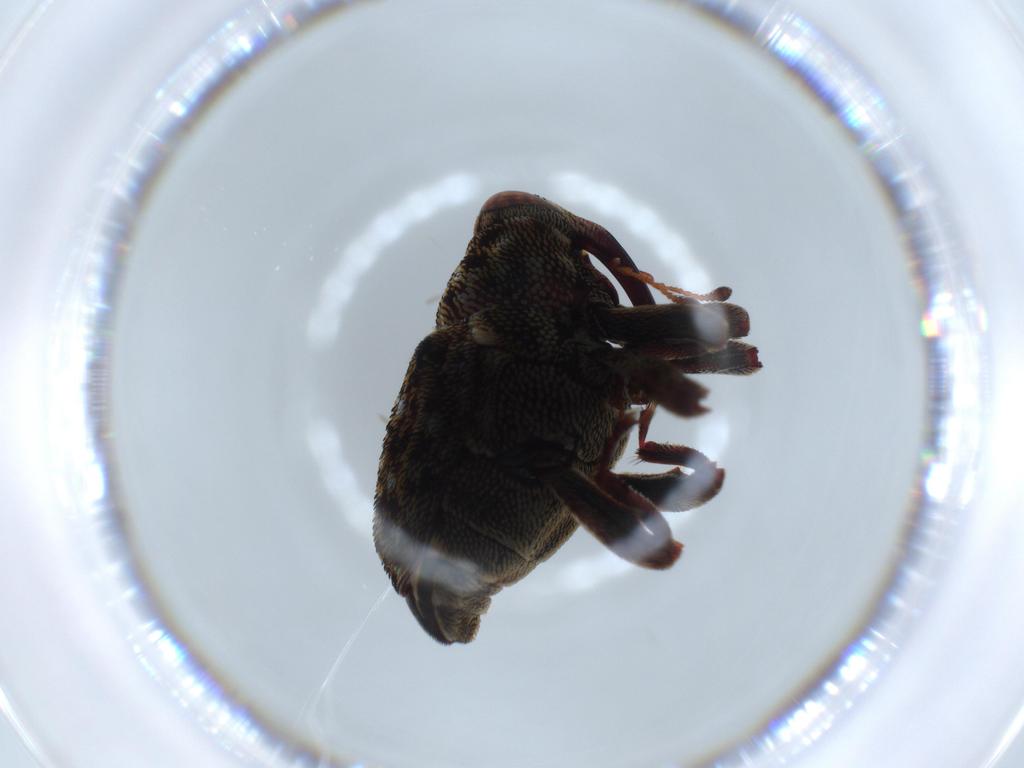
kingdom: Animalia
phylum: Arthropoda
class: Insecta
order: Coleoptera
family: Curculionidae
